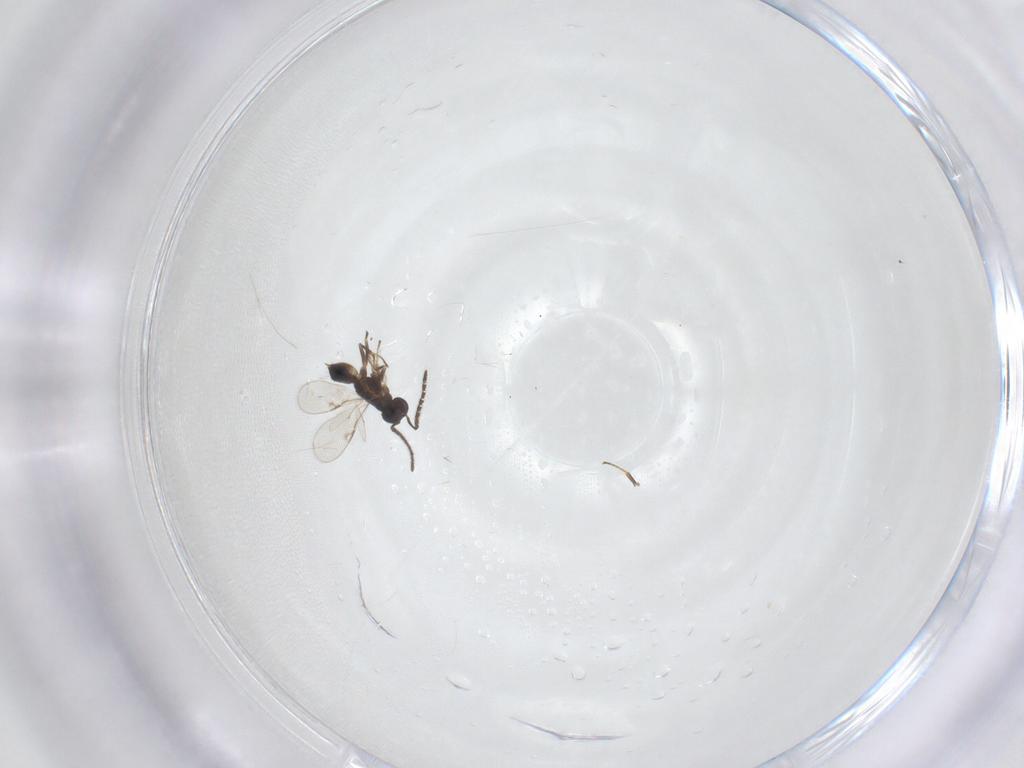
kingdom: Animalia
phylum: Arthropoda
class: Insecta
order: Hymenoptera
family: Encyrtidae
